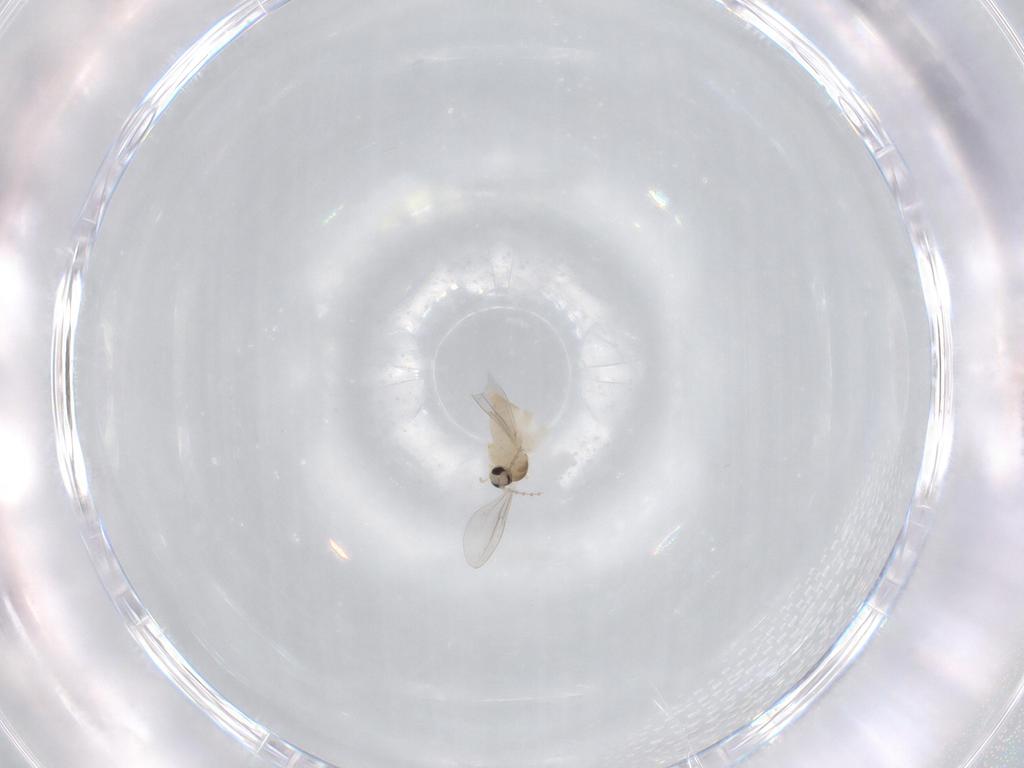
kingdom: Animalia
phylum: Arthropoda
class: Insecta
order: Diptera
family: Cecidomyiidae
